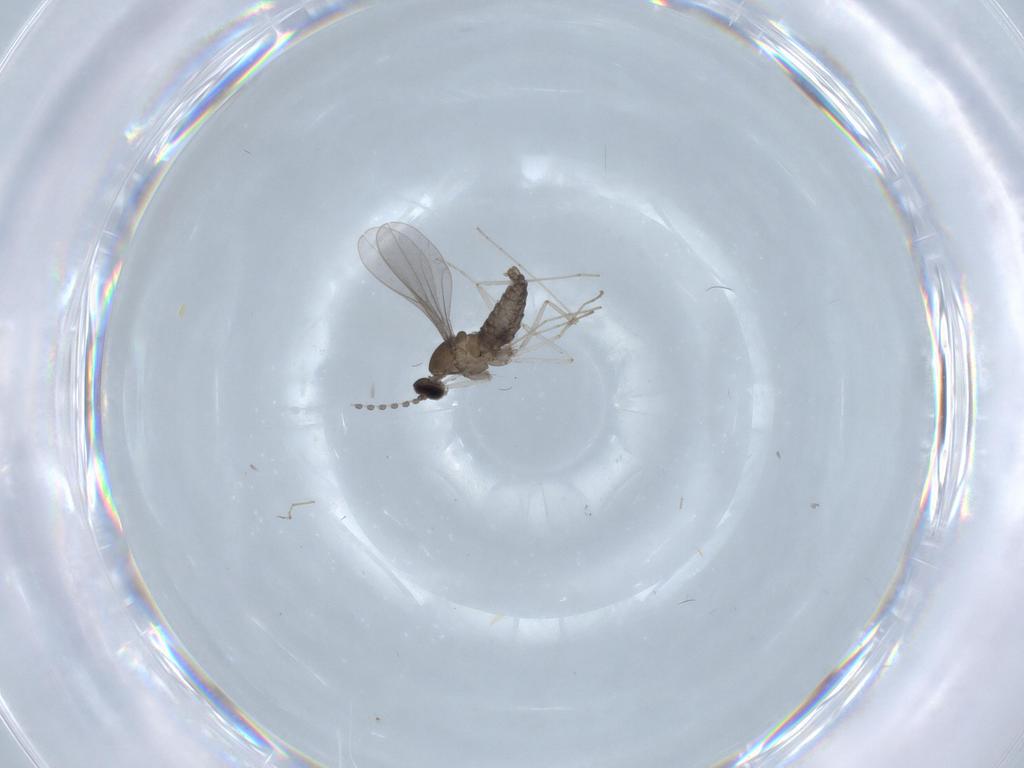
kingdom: Animalia
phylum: Arthropoda
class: Insecta
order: Diptera
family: Cecidomyiidae
